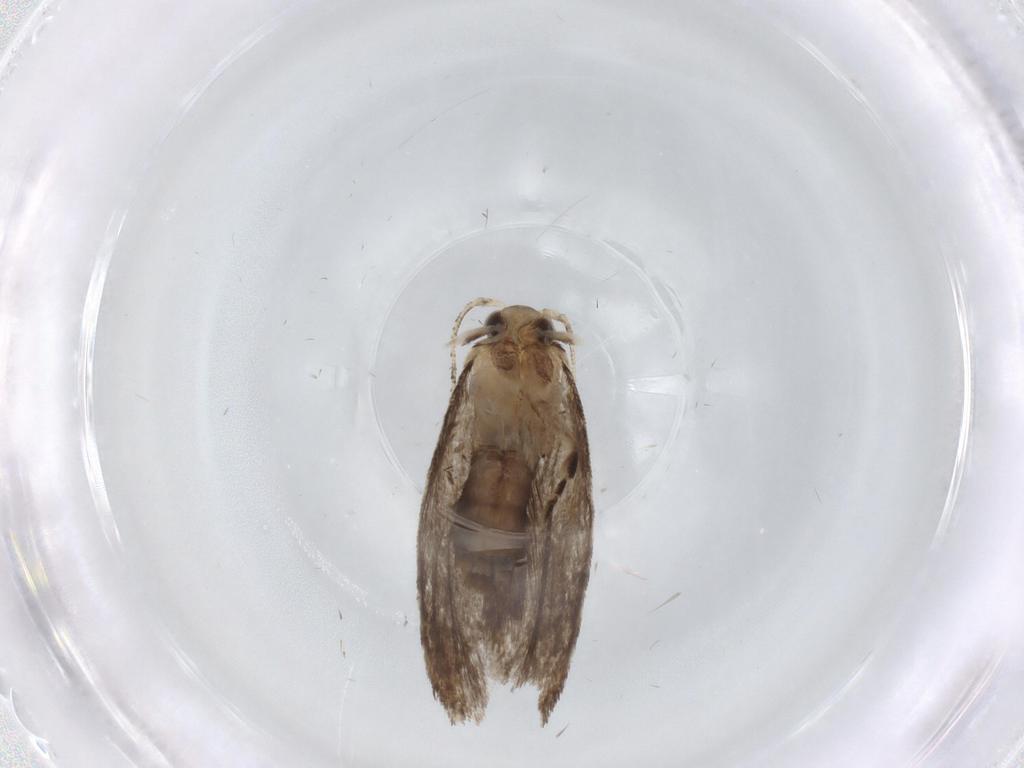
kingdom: Animalia
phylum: Arthropoda
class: Insecta
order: Lepidoptera
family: Tineidae
